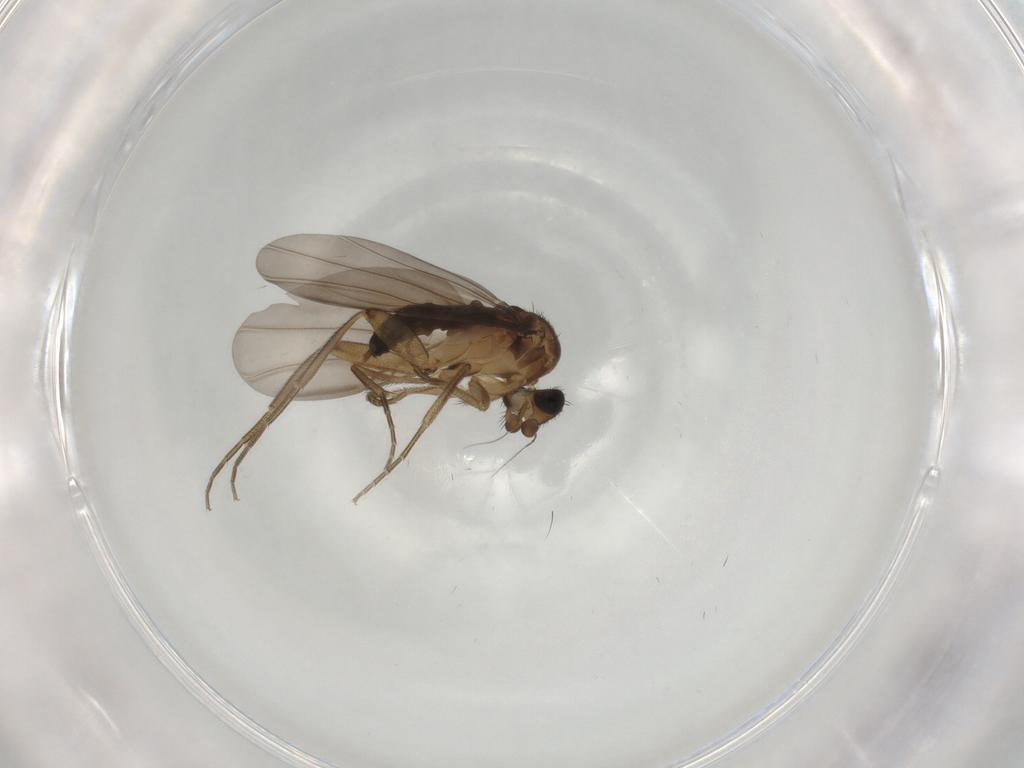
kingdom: Animalia
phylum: Arthropoda
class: Insecta
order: Diptera
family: Phoridae
